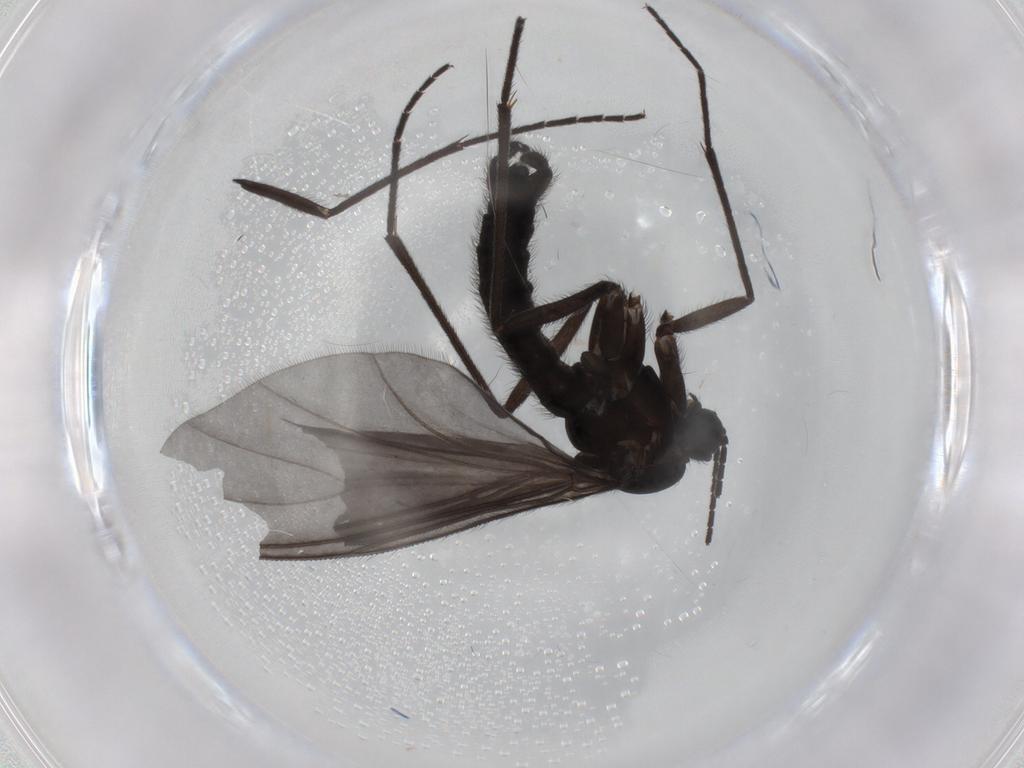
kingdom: Animalia
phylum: Arthropoda
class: Insecta
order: Diptera
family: Sciaridae
